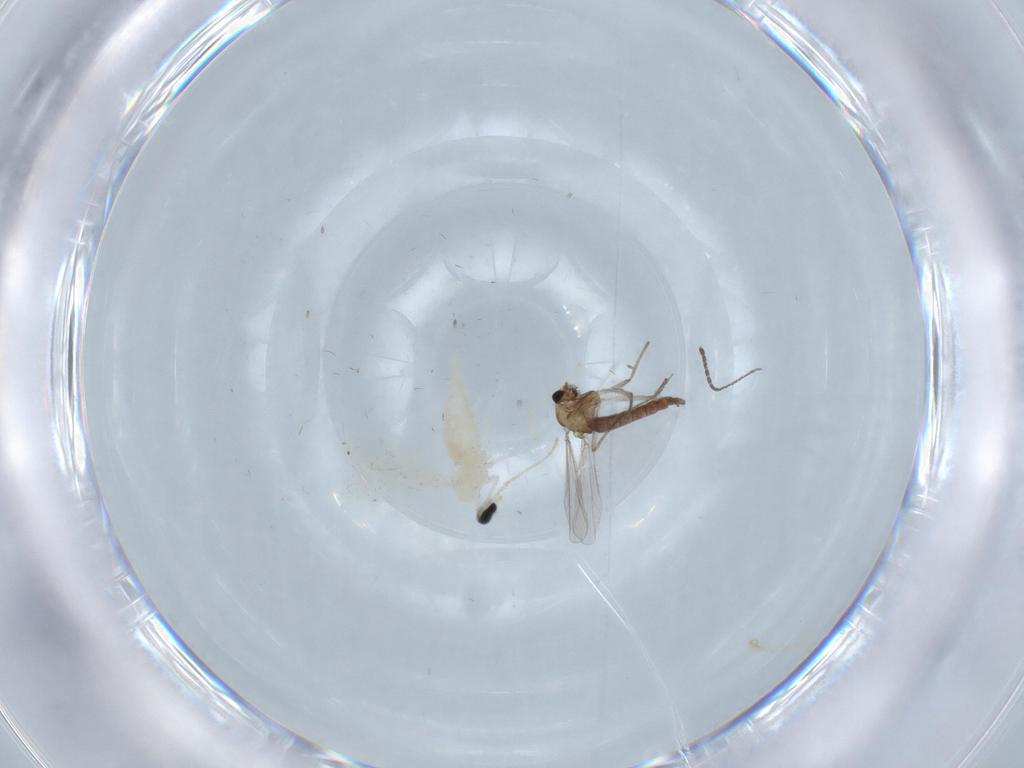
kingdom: Animalia
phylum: Arthropoda
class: Insecta
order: Diptera
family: Chironomidae
